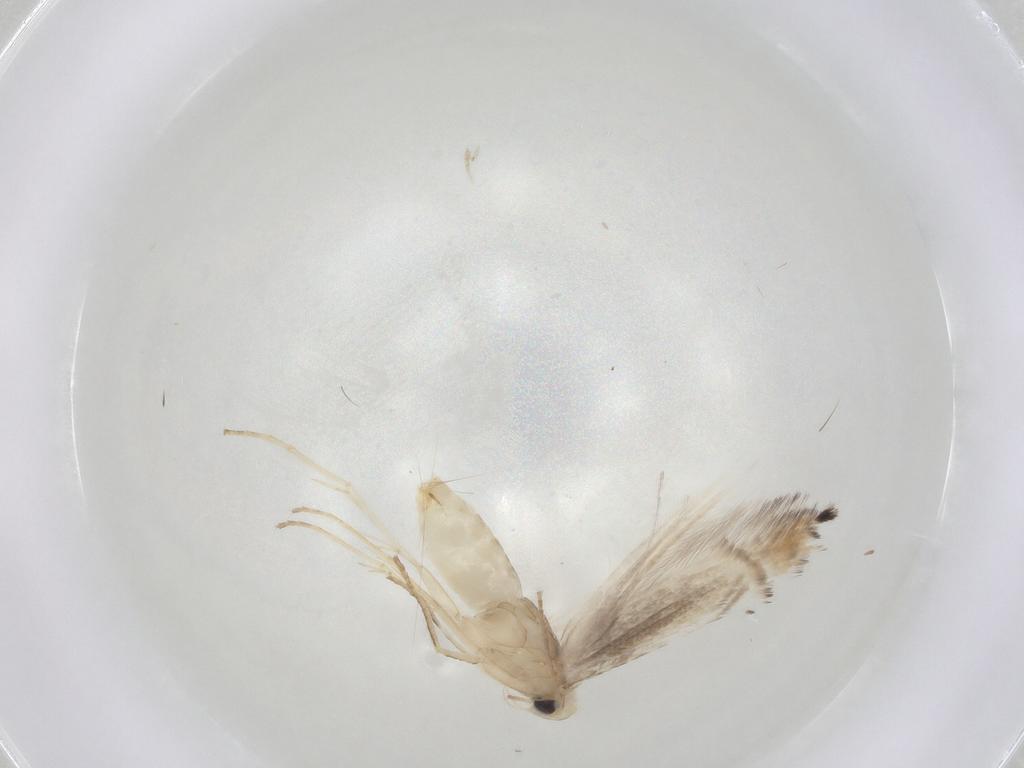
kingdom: Animalia
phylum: Arthropoda
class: Insecta
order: Lepidoptera
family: Gracillariidae
